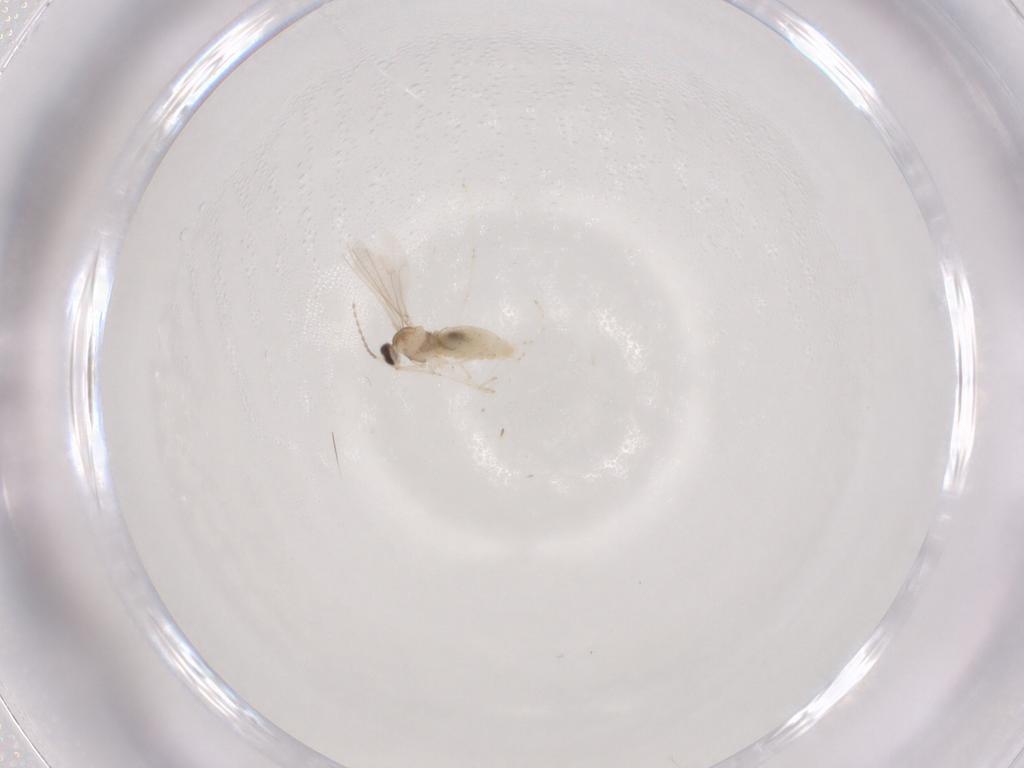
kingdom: Animalia
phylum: Arthropoda
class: Insecta
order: Diptera
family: Cecidomyiidae
